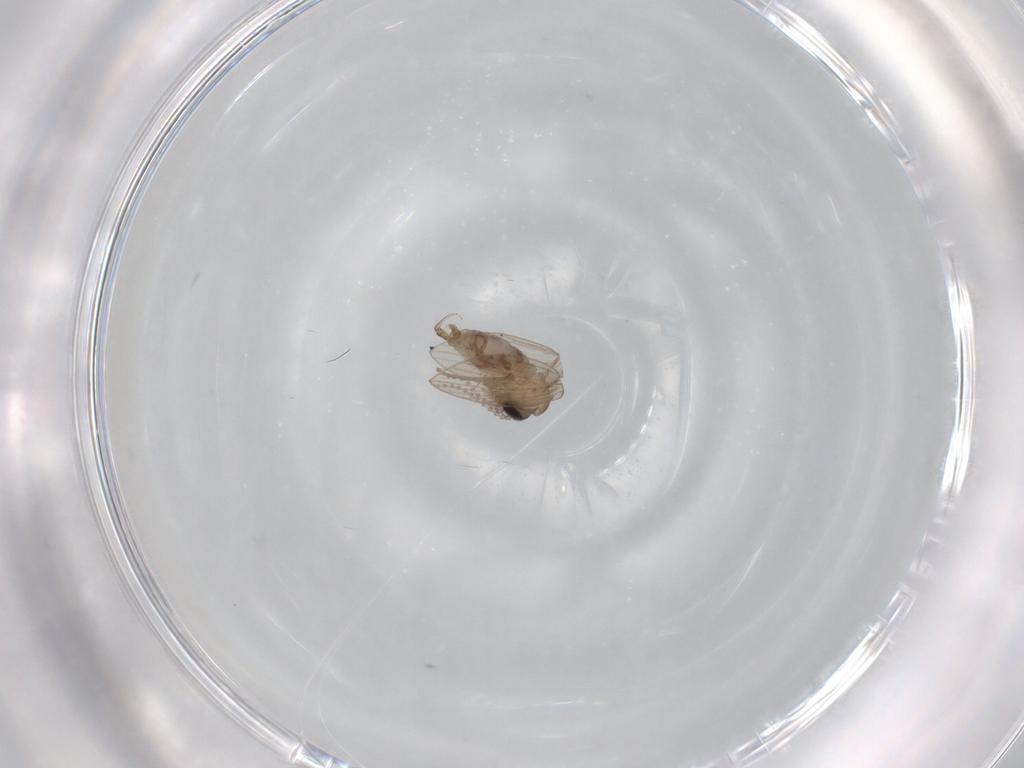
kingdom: Animalia
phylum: Arthropoda
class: Insecta
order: Diptera
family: Psychodidae
